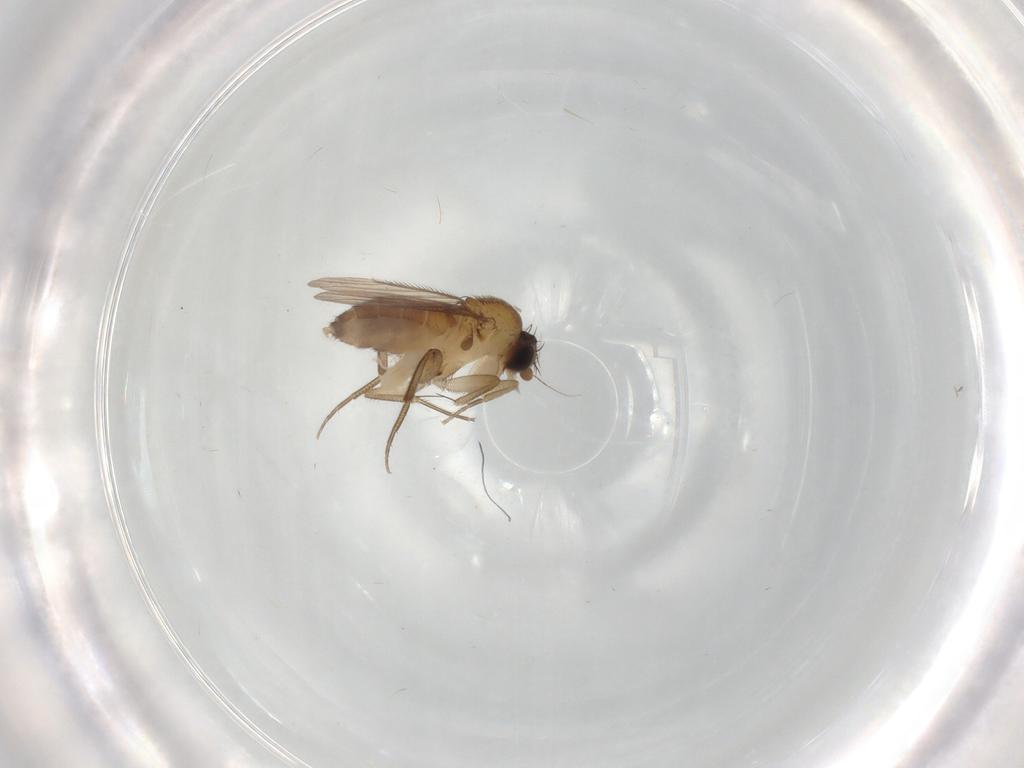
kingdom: Animalia
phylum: Arthropoda
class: Insecta
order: Diptera
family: Chironomidae
